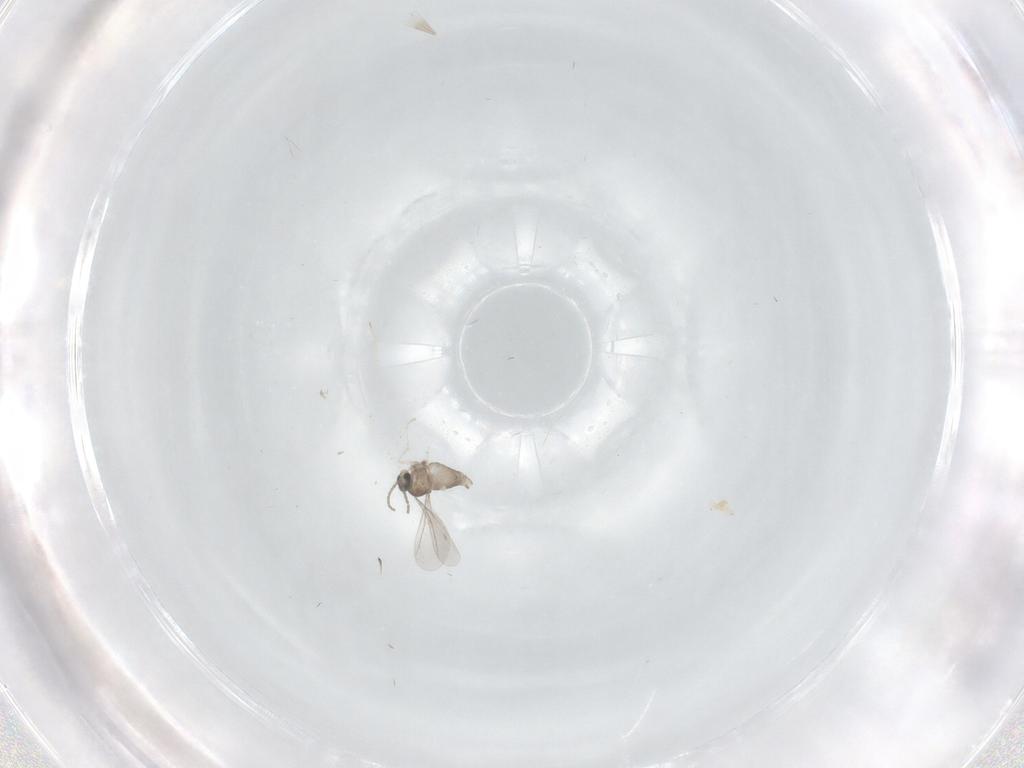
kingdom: Animalia
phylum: Arthropoda
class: Insecta
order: Diptera
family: Cecidomyiidae
